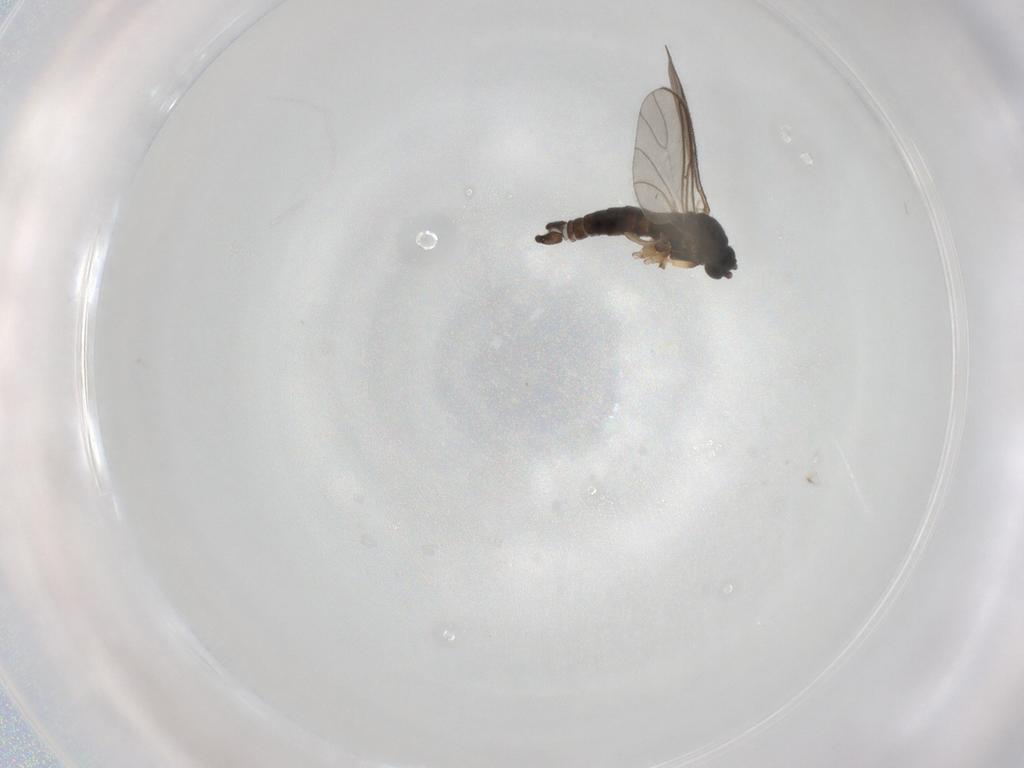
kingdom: Animalia
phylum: Arthropoda
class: Insecta
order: Diptera
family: Sciaridae
